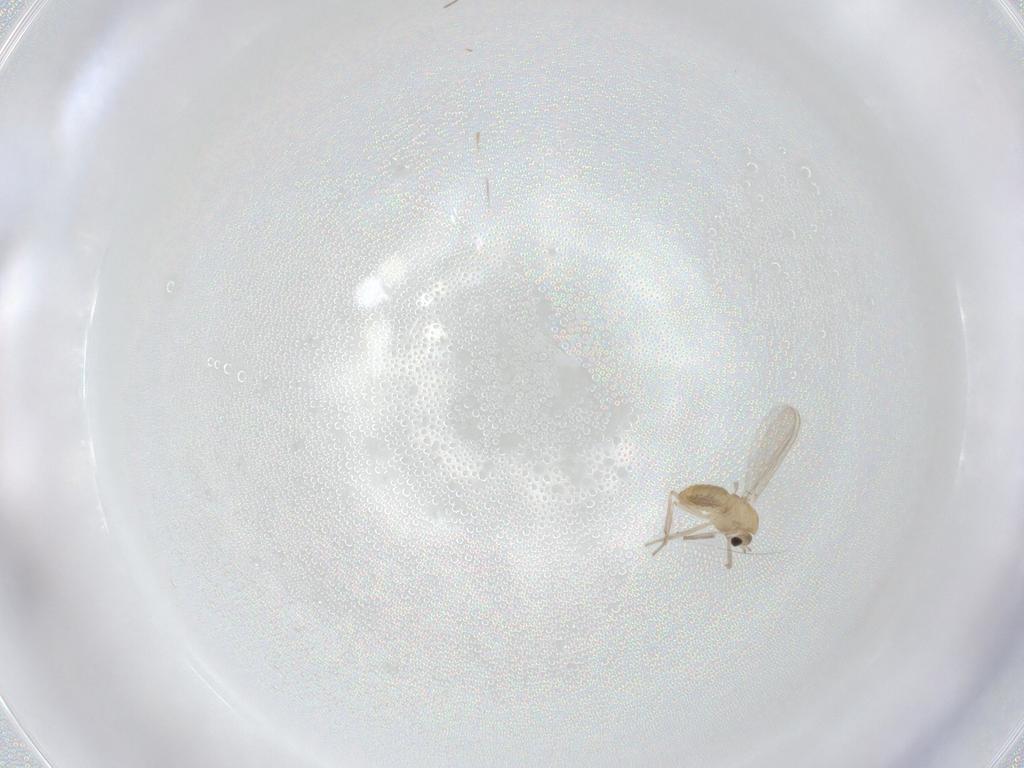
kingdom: Animalia
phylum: Arthropoda
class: Insecta
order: Diptera
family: Chironomidae
